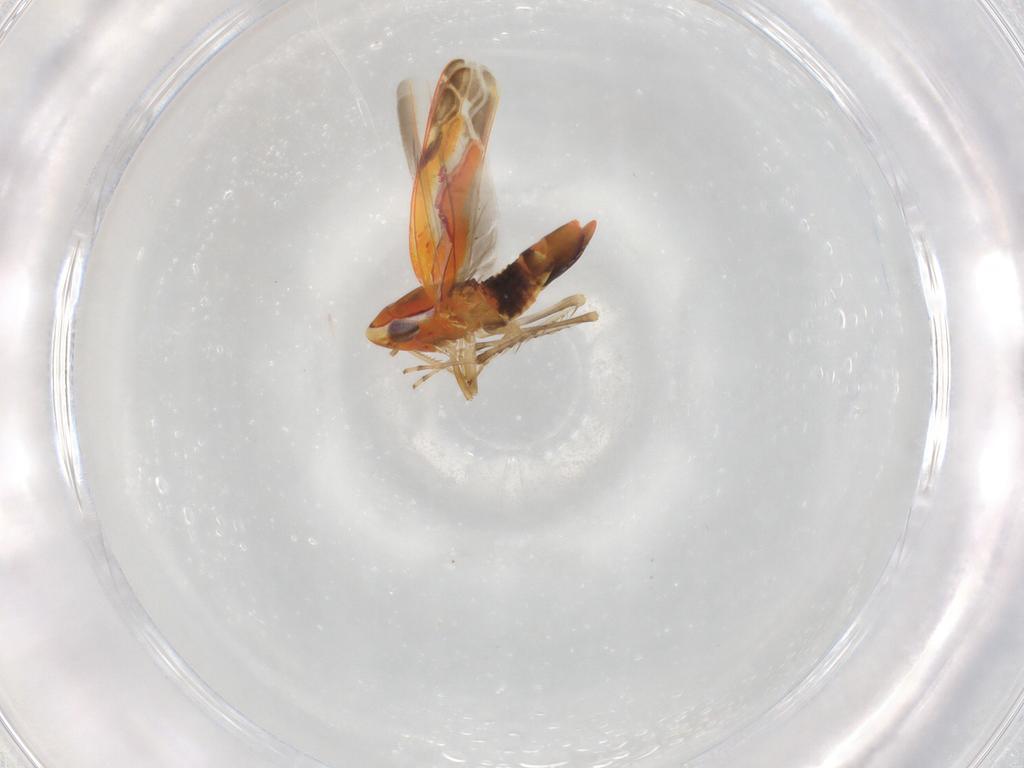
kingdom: Animalia
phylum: Arthropoda
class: Insecta
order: Hemiptera
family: Cicadellidae
